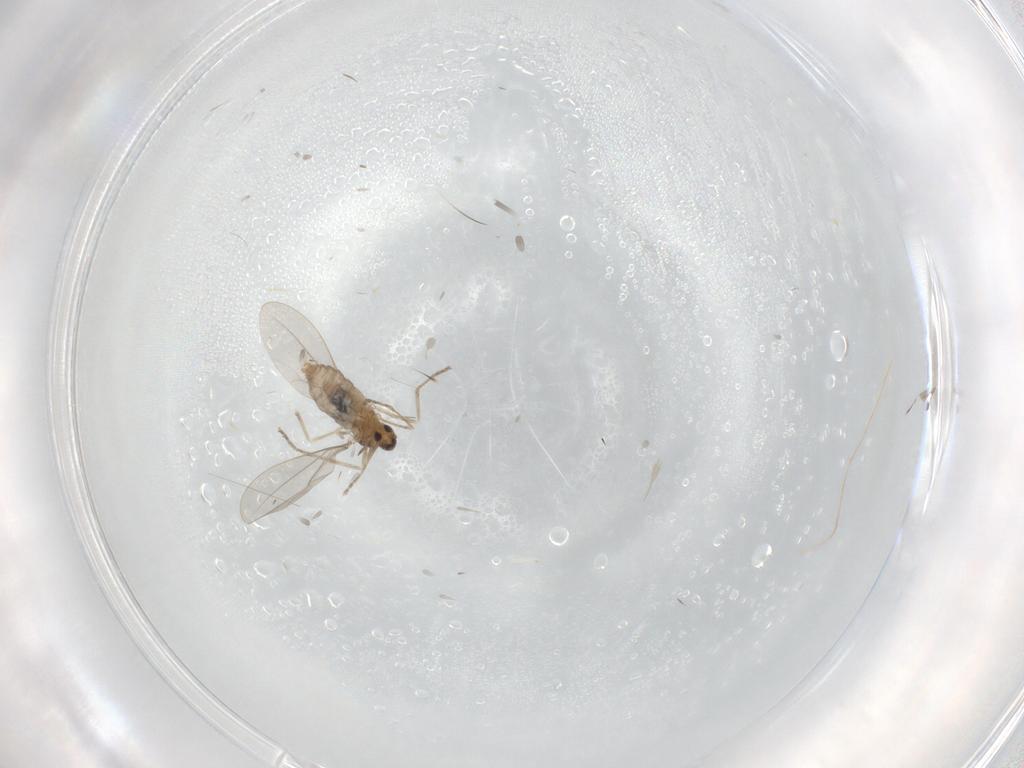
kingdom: Animalia
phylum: Arthropoda
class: Insecta
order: Diptera
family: Cecidomyiidae
